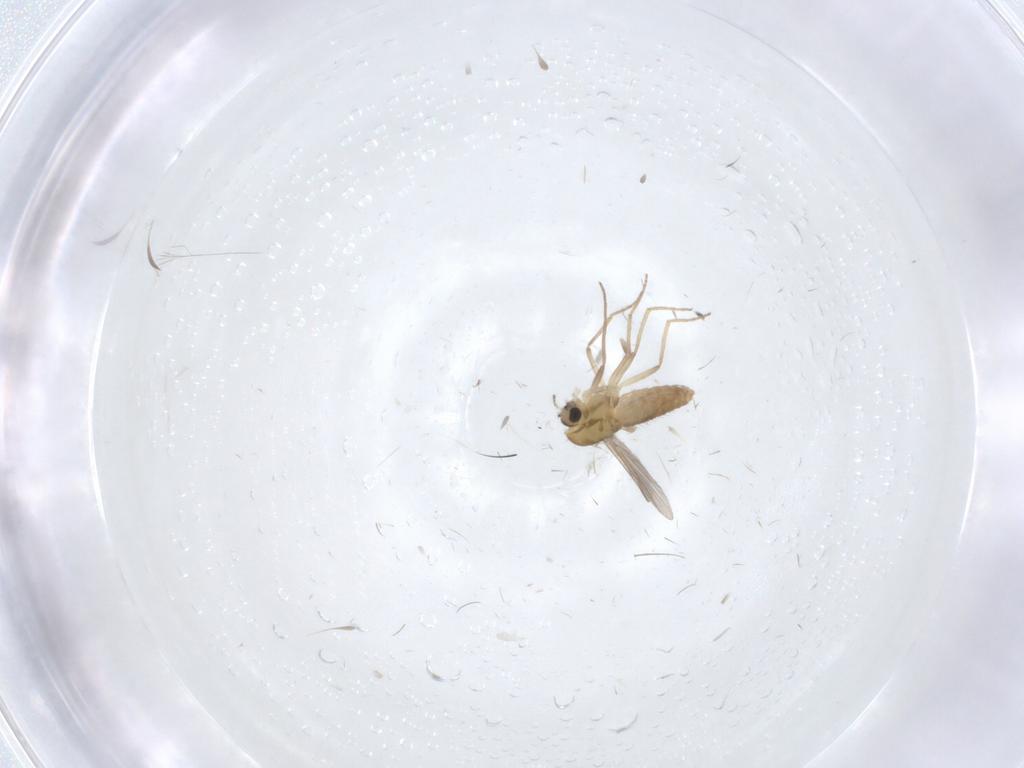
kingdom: Animalia
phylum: Arthropoda
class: Insecta
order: Diptera
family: Chironomidae
